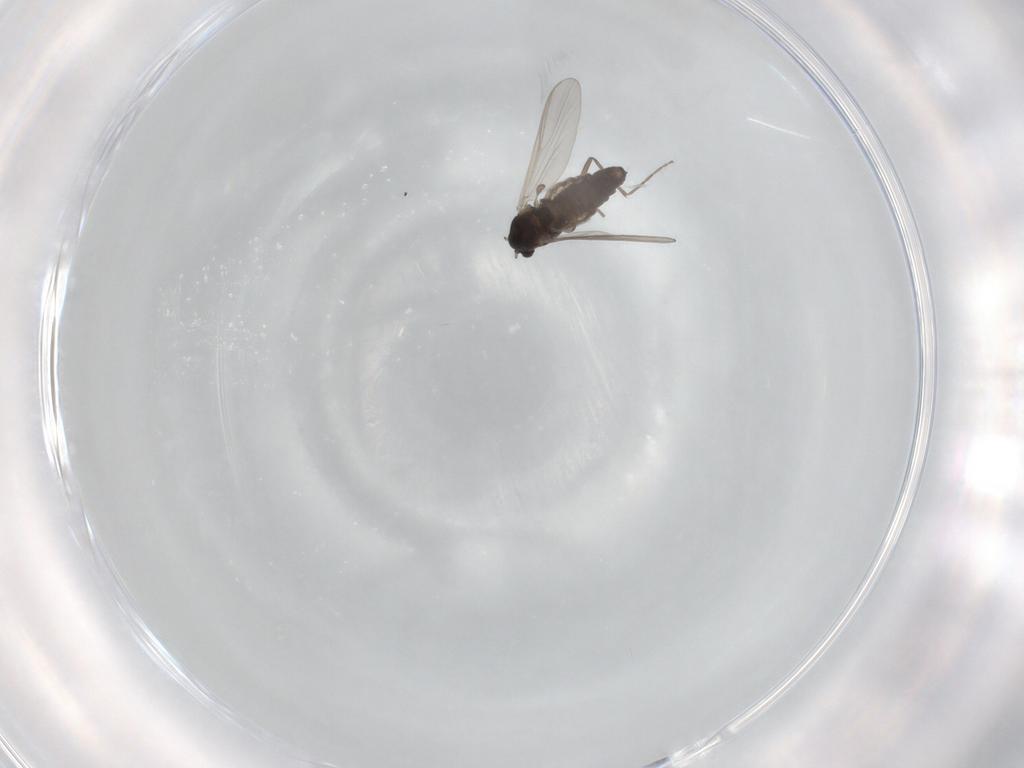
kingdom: Animalia
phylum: Arthropoda
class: Insecta
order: Diptera
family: Chironomidae
